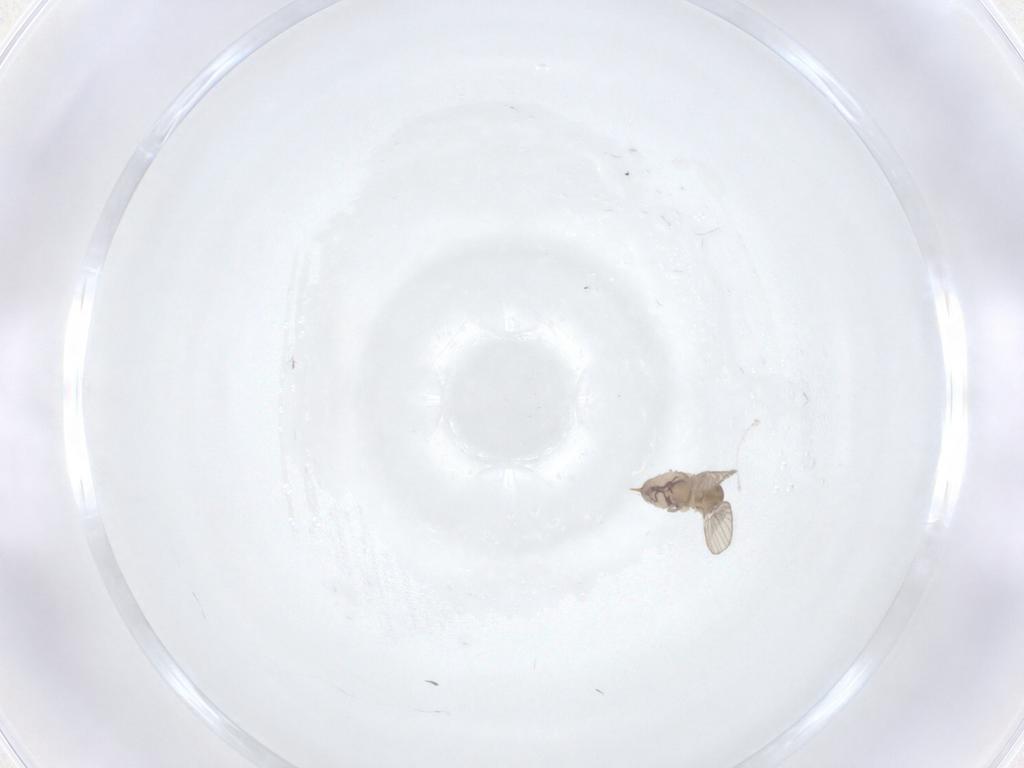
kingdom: Animalia
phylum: Arthropoda
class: Insecta
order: Diptera
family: Psychodidae
